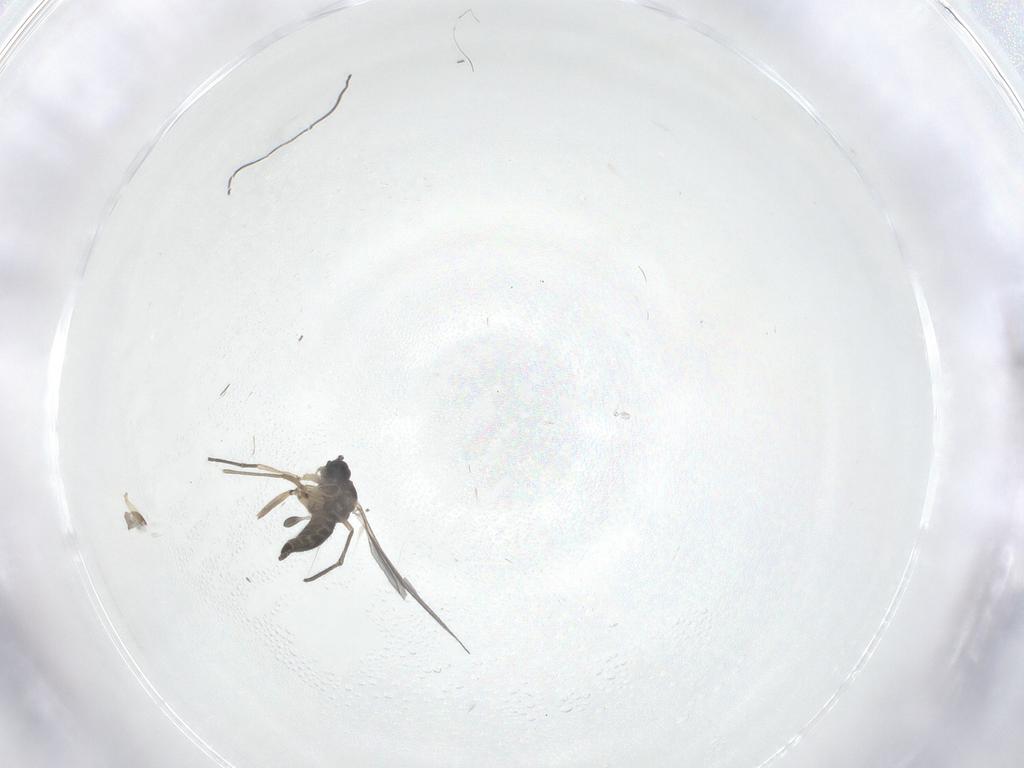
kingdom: Animalia
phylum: Arthropoda
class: Insecta
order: Diptera
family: Sciaridae
